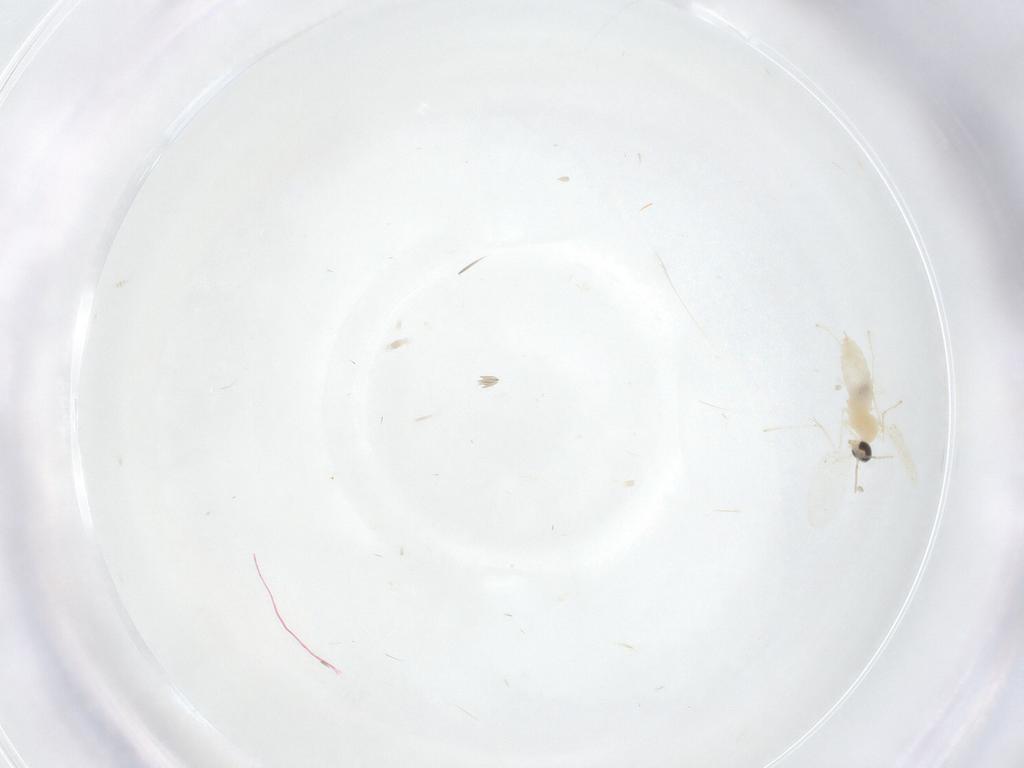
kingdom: Animalia
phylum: Arthropoda
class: Insecta
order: Diptera
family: Cecidomyiidae
